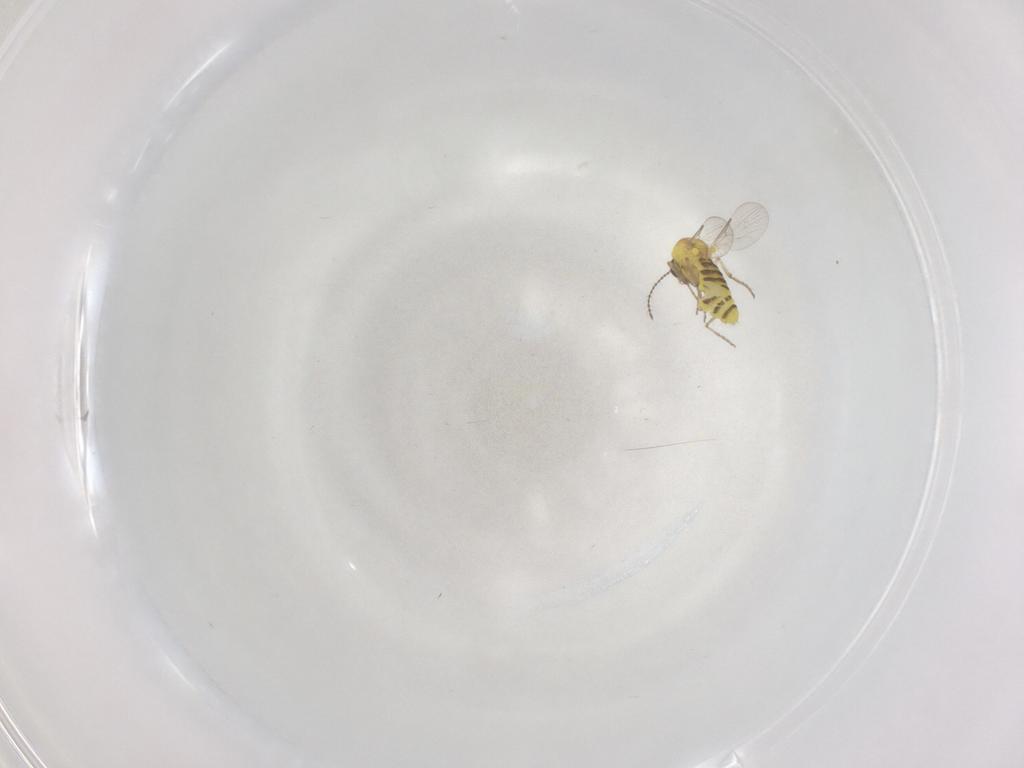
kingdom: Animalia
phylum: Arthropoda
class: Insecta
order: Diptera
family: Ceratopogonidae
